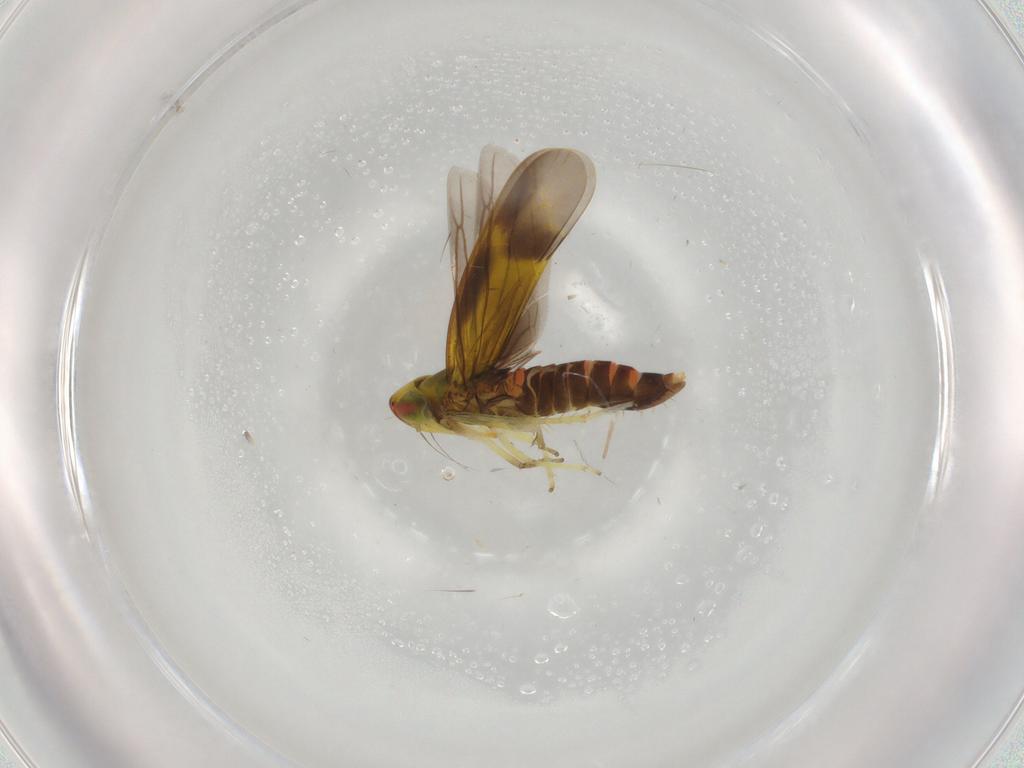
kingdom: Animalia
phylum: Arthropoda
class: Insecta
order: Hemiptera
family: Cicadellidae
